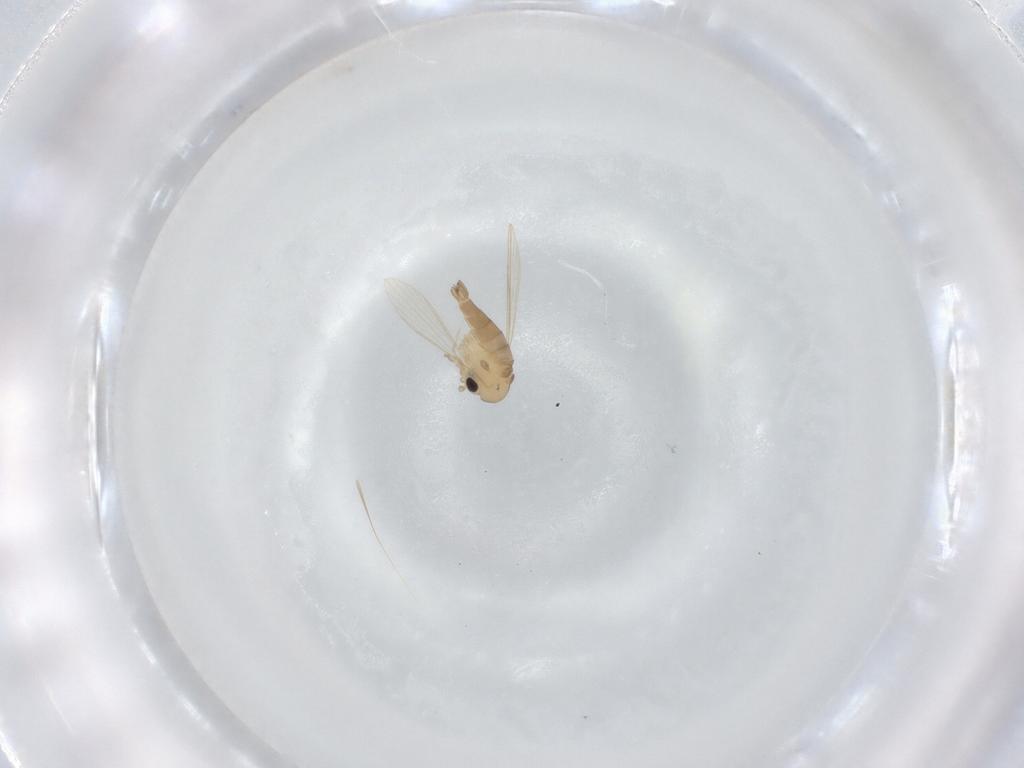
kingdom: Animalia
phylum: Arthropoda
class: Insecta
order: Diptera
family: Psychodidae
